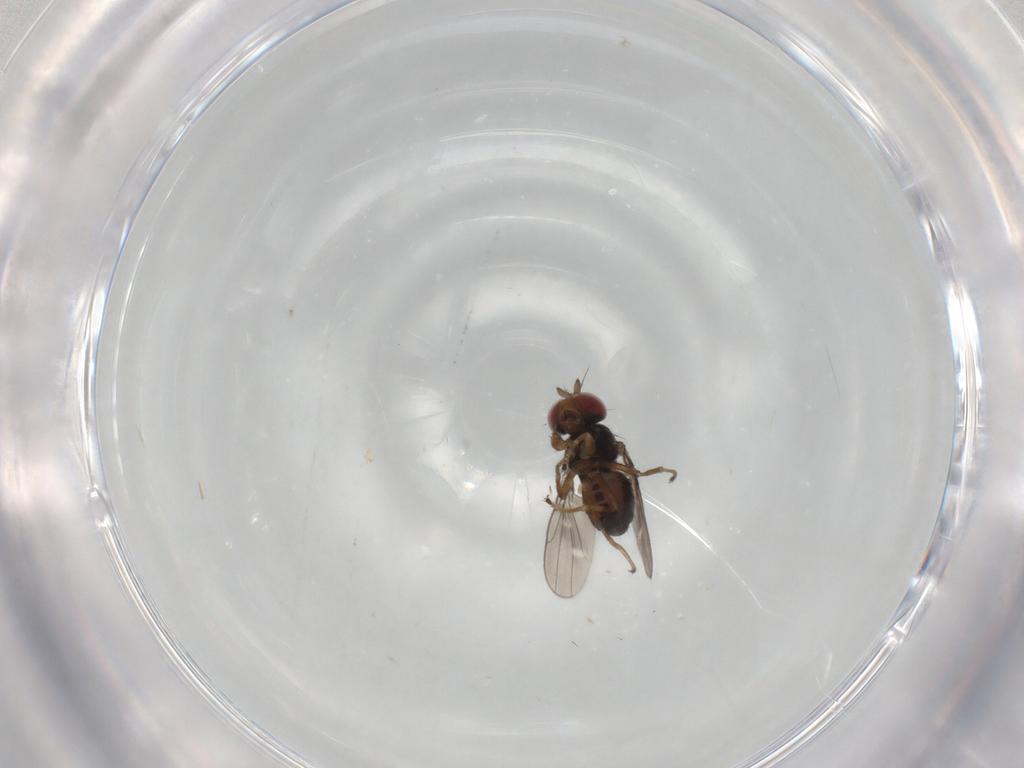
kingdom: Animalia
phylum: Arthropoda
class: Insecta
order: Diptera
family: Ephydridae
